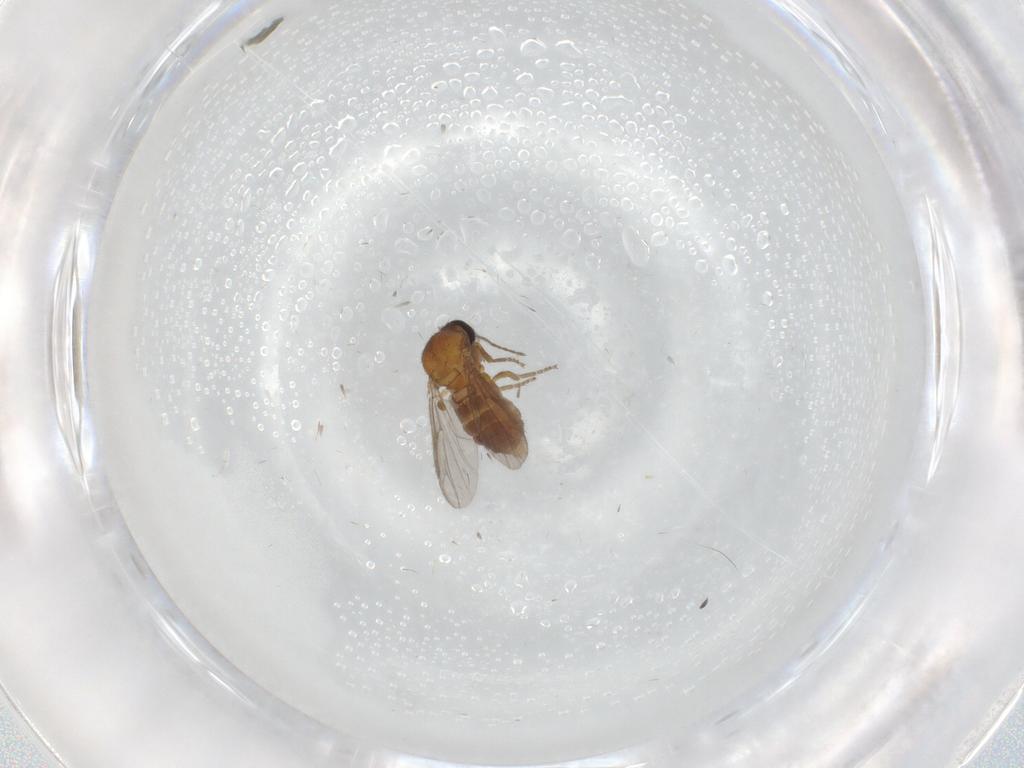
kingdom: Animalia
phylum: Arthropoda
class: Insecta
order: Diptera
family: Ceratopogonidae
